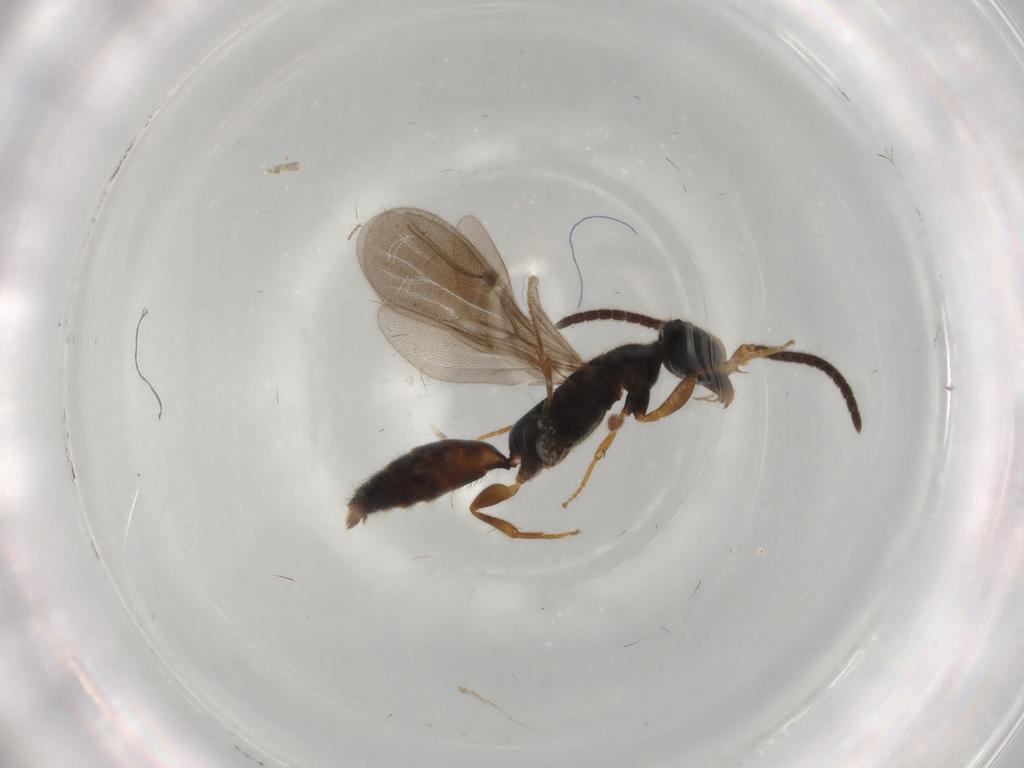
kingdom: Animalia
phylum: Arthropoda
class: Insecta
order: Hymenoptera
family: Bethylidae
